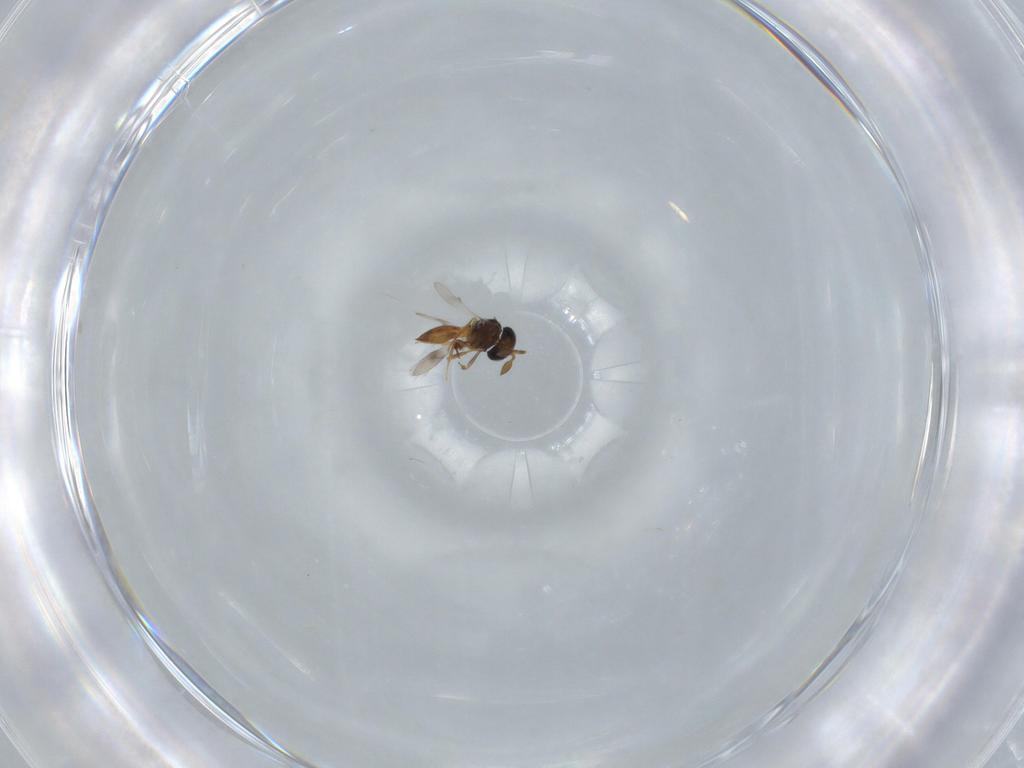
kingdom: Animalia
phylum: Arthropoda
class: Insecta
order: Hymenoptera
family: Scelionidae
